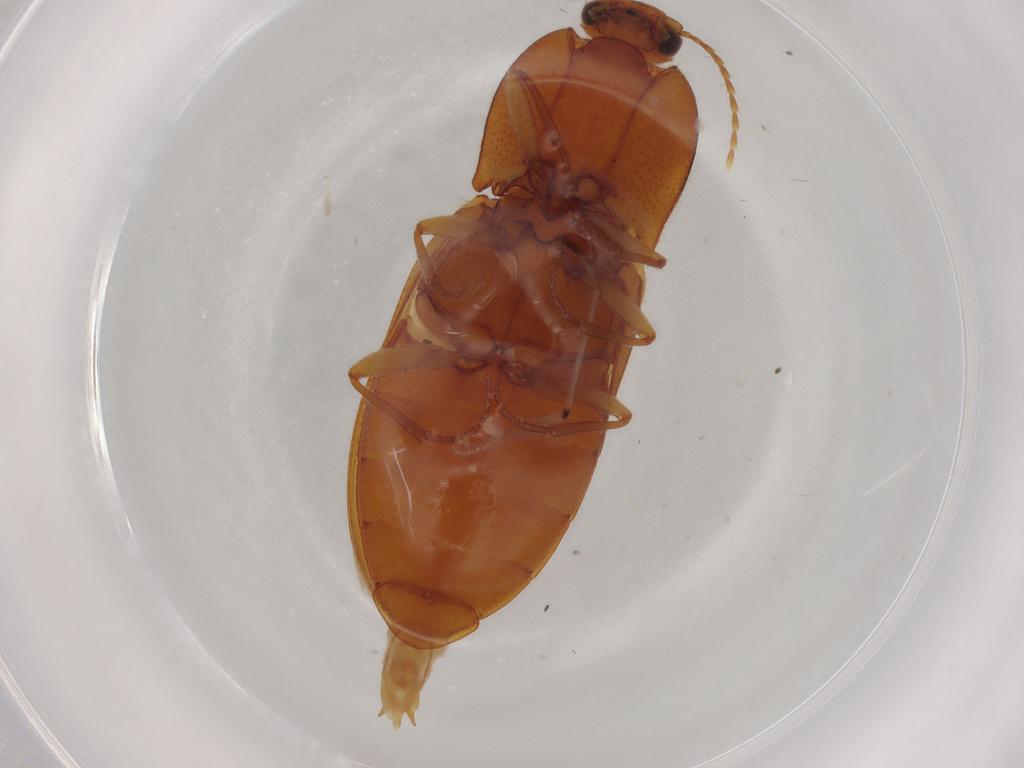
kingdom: Animalia
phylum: Arthropoda
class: Insecta
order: Coleoptera
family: Elateridae
